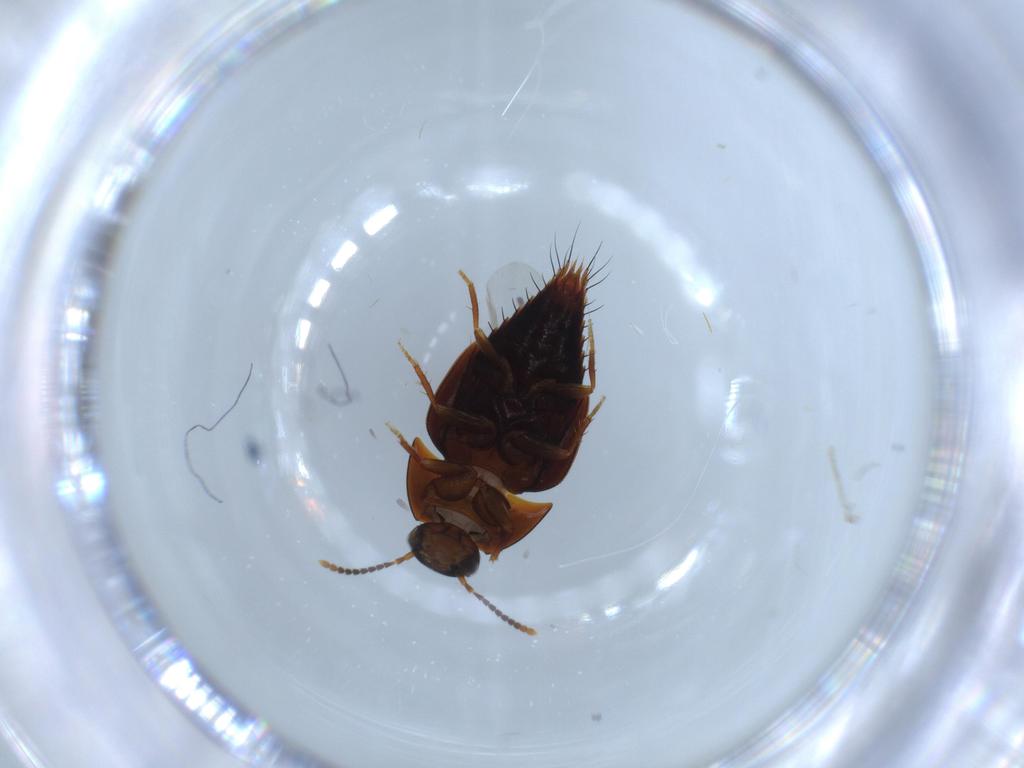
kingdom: Animalia
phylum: Arthropoda
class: Insecta
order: Coleoptera
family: Staphylinidae
